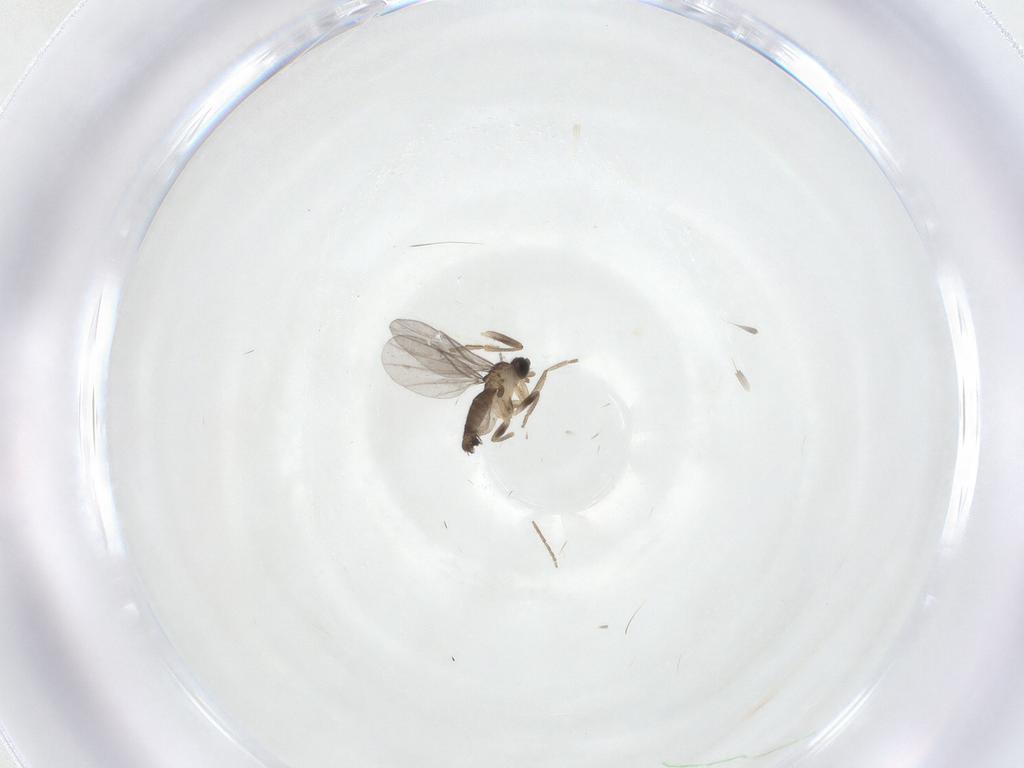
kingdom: Animalia
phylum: Arthropoda
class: Insecta
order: Diptera
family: Phoridae
